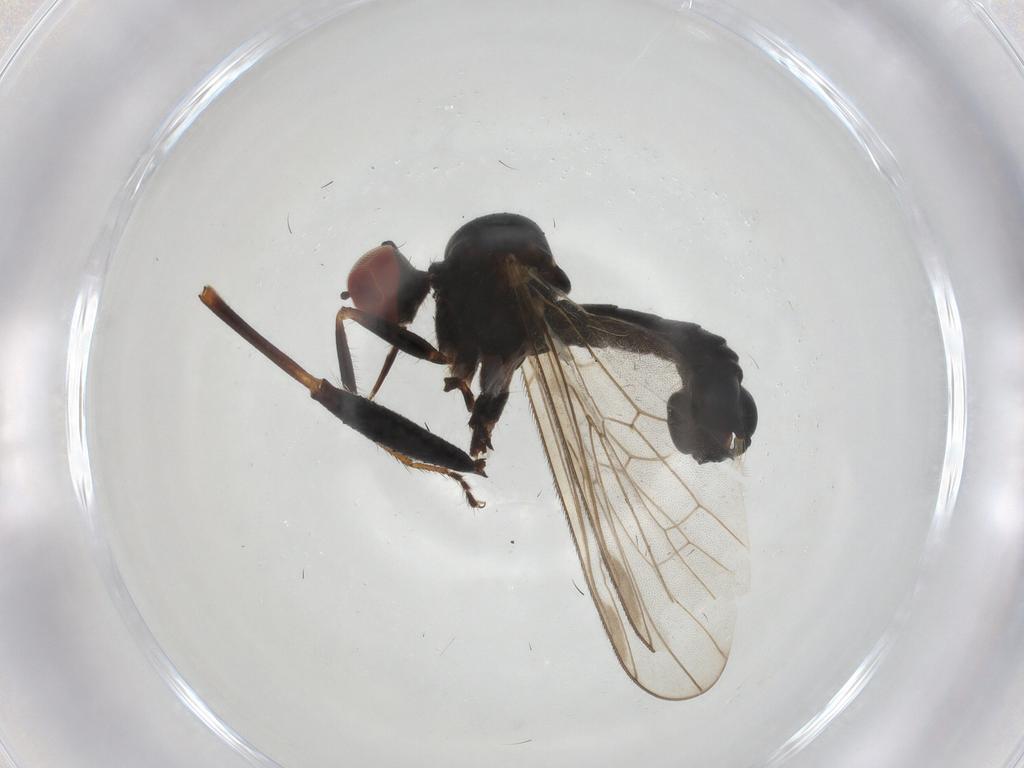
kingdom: Animalia
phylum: Arthropoda
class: Insecta
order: Diptera
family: Hybotidae
